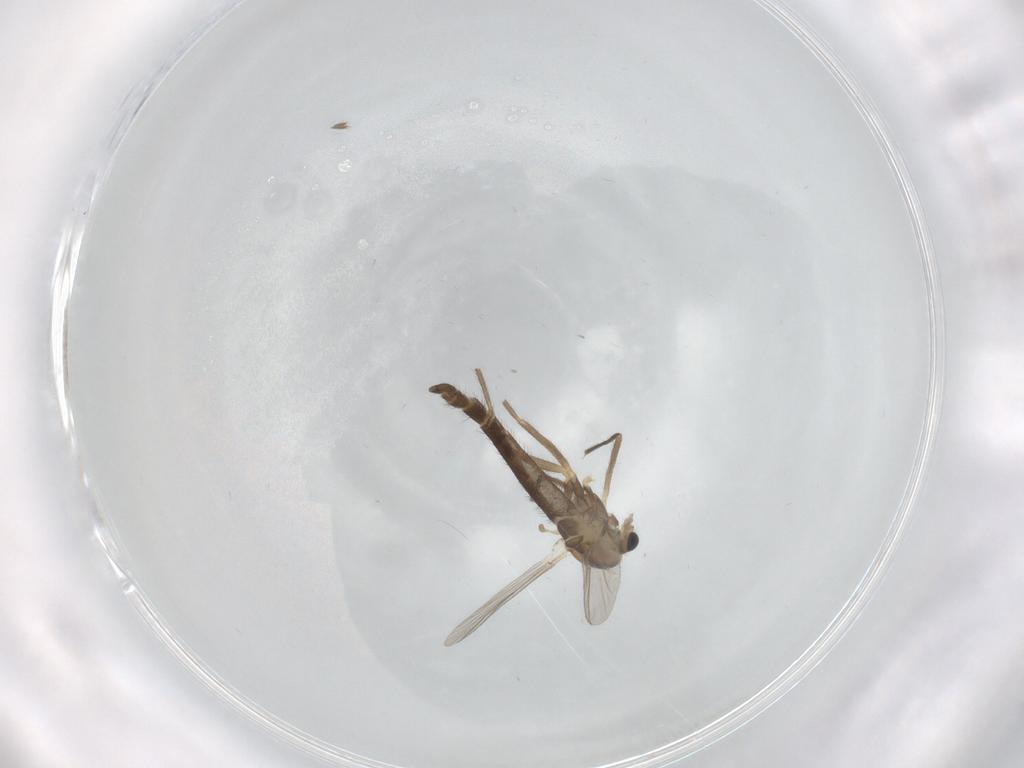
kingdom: Animalia
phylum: Arthropoda
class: Insecta
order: Diptera
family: Chironomidae
